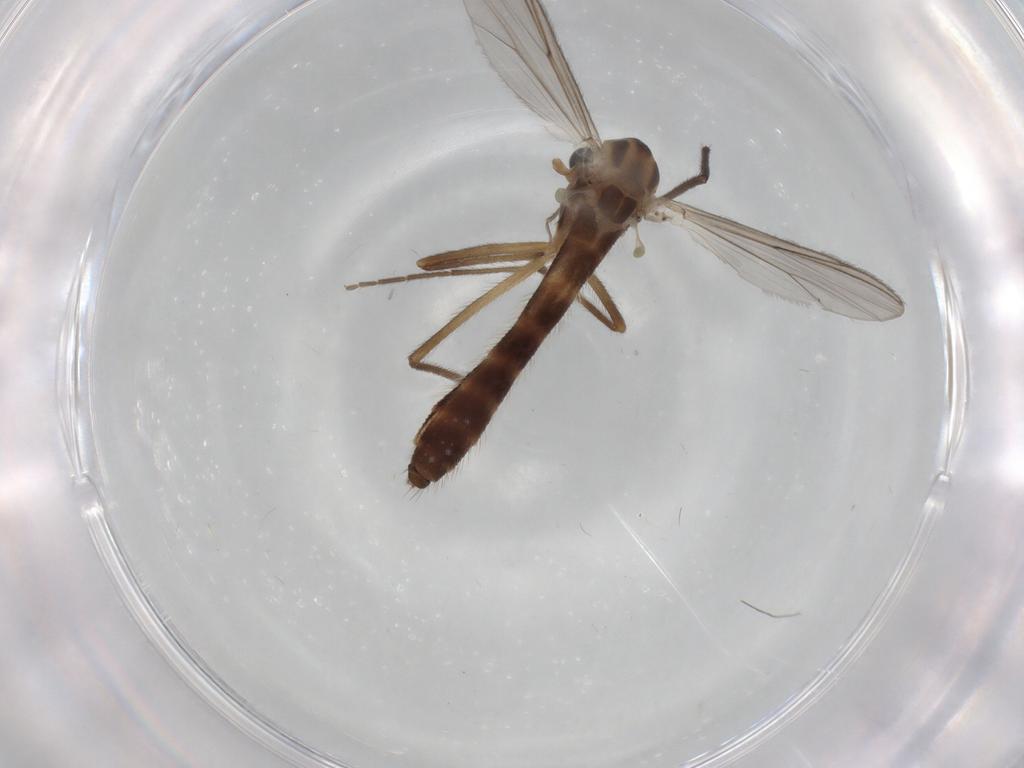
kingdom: Animalia
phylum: Arthropoda
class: Insecta
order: Diptera
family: Chironomidae
